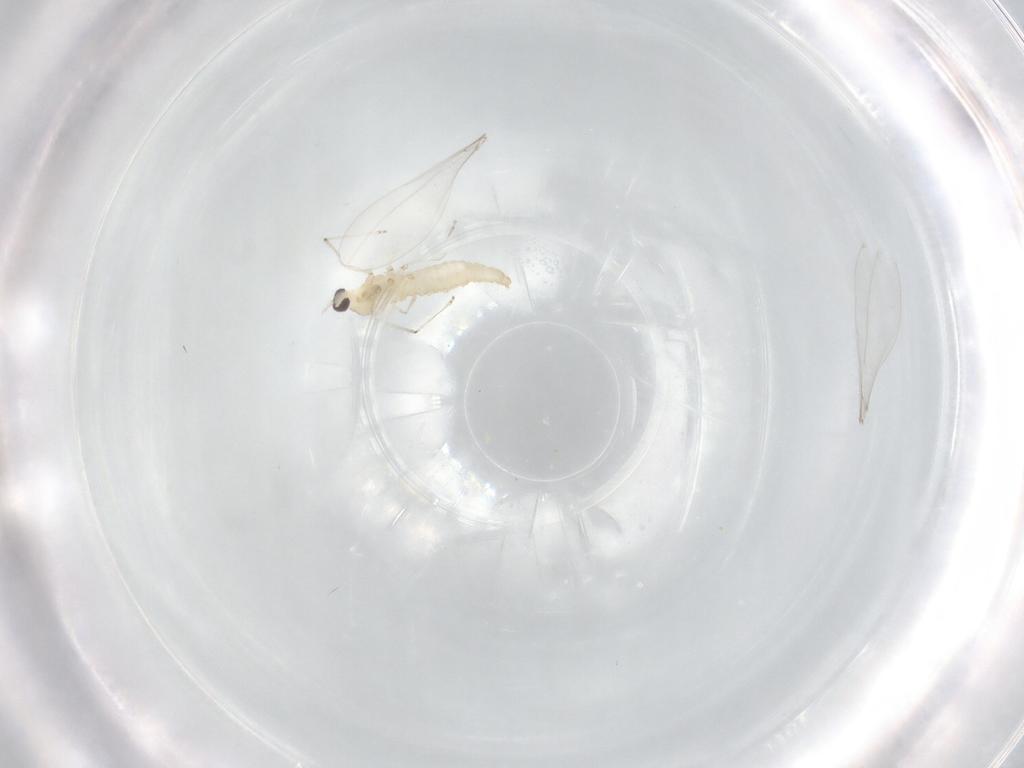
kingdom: Animalia
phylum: Arthropoda
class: Insecta
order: Diptera
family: Cecidomyiidae
